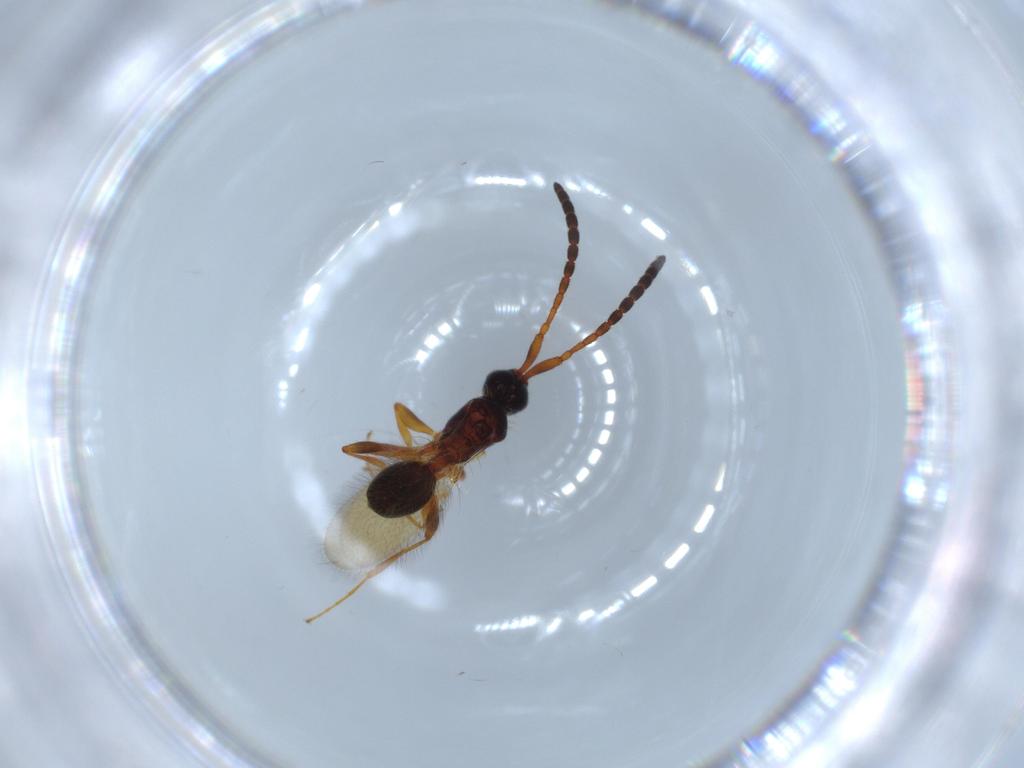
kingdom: Animalia
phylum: Arthropoda
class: Insecta
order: Hymenoptera
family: Diapriidae
